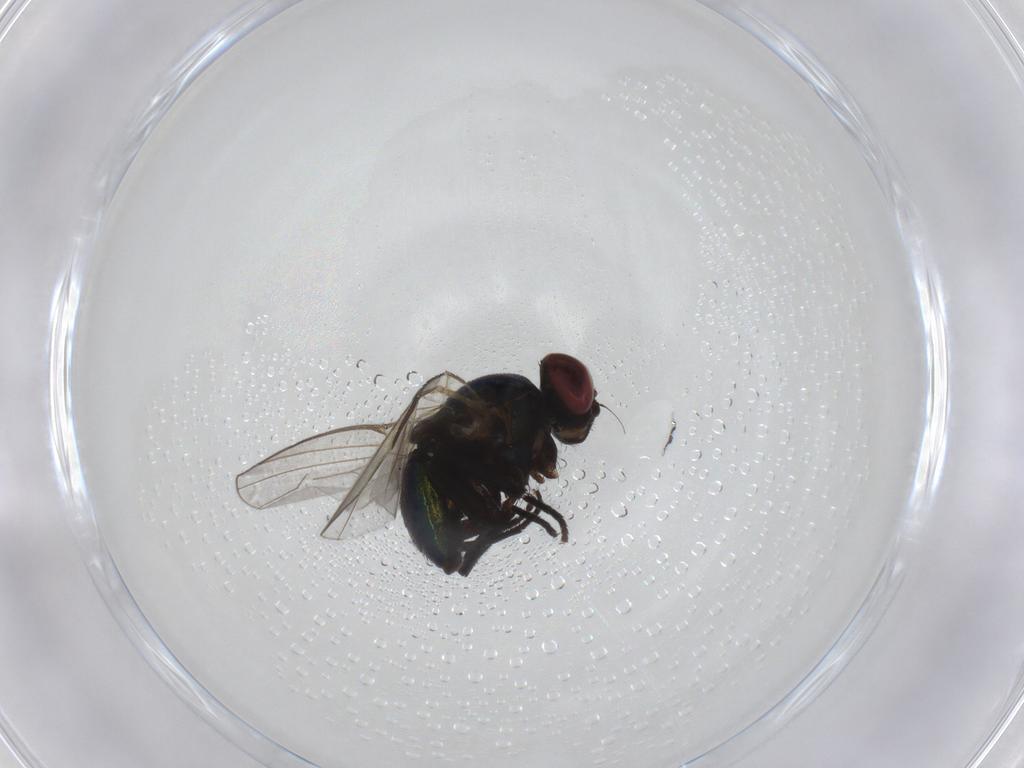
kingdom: Animalia
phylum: Arthropoda
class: Insecta
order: Diptera
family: Agromyzidae
